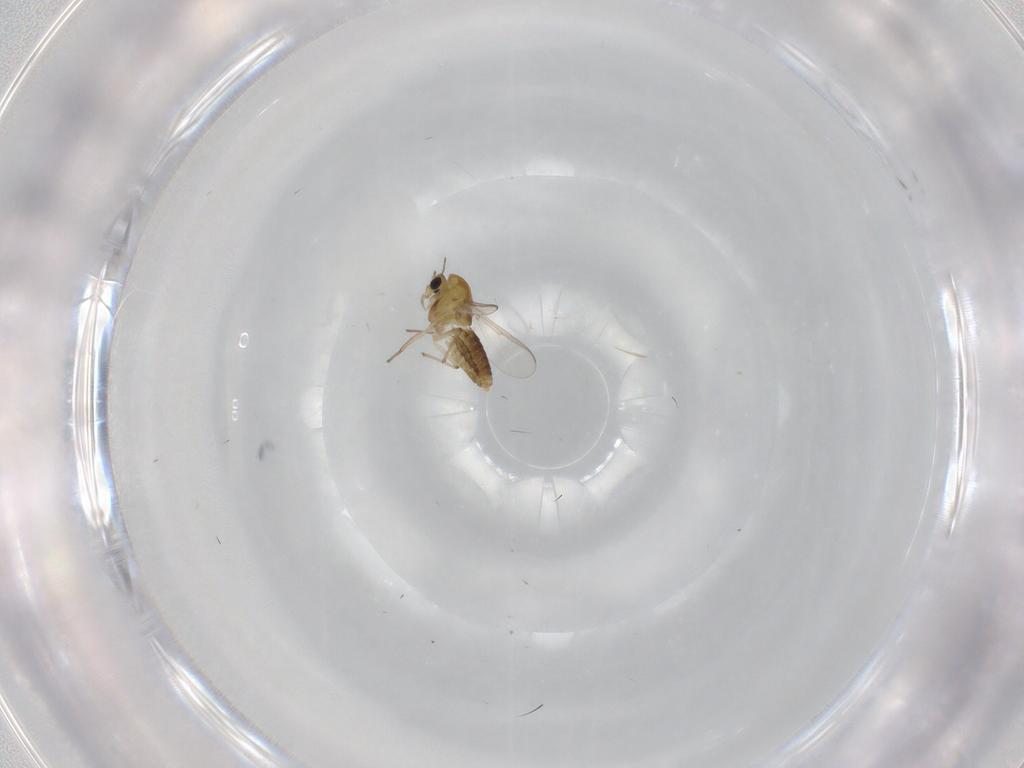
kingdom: Animalia
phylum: Arthropoda
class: Insecta
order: Diptera
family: Chironomidae
